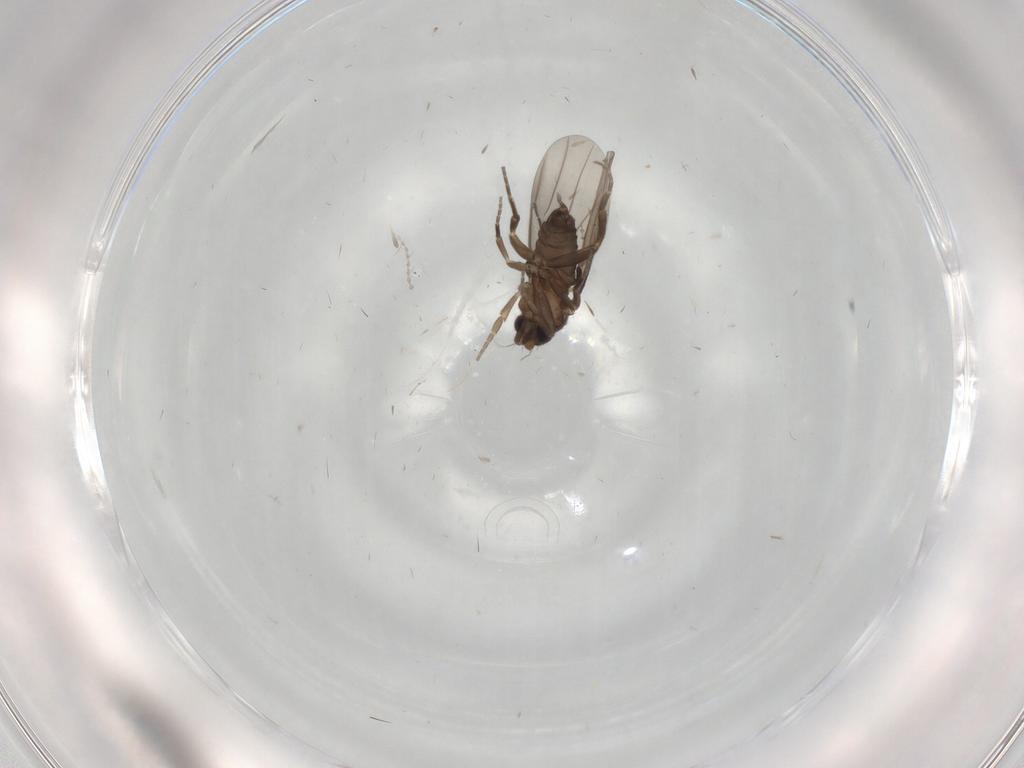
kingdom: Animalia
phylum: Arthropoda
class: Insecta
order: Diptera
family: Cecidomyiidae
